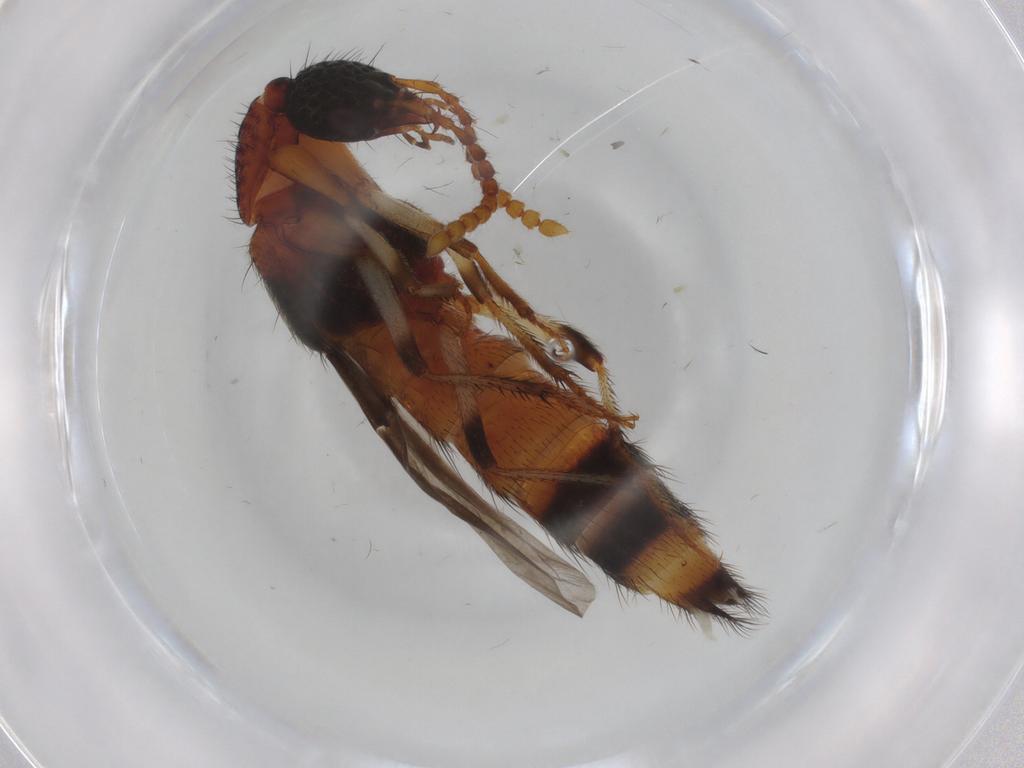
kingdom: Animalia
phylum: Arthropoda
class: Insecta
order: Coleoptera
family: Staphylinidae
